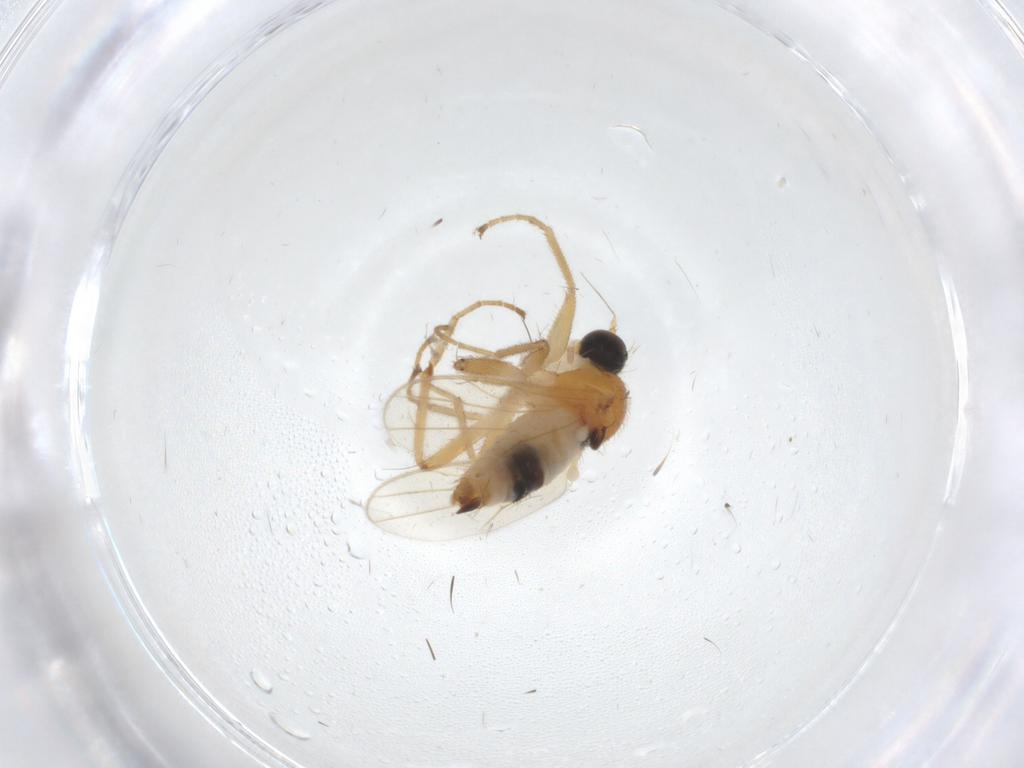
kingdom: Animalia
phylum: Arthropoda
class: Insecta
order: Diptera
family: Hybotidae
